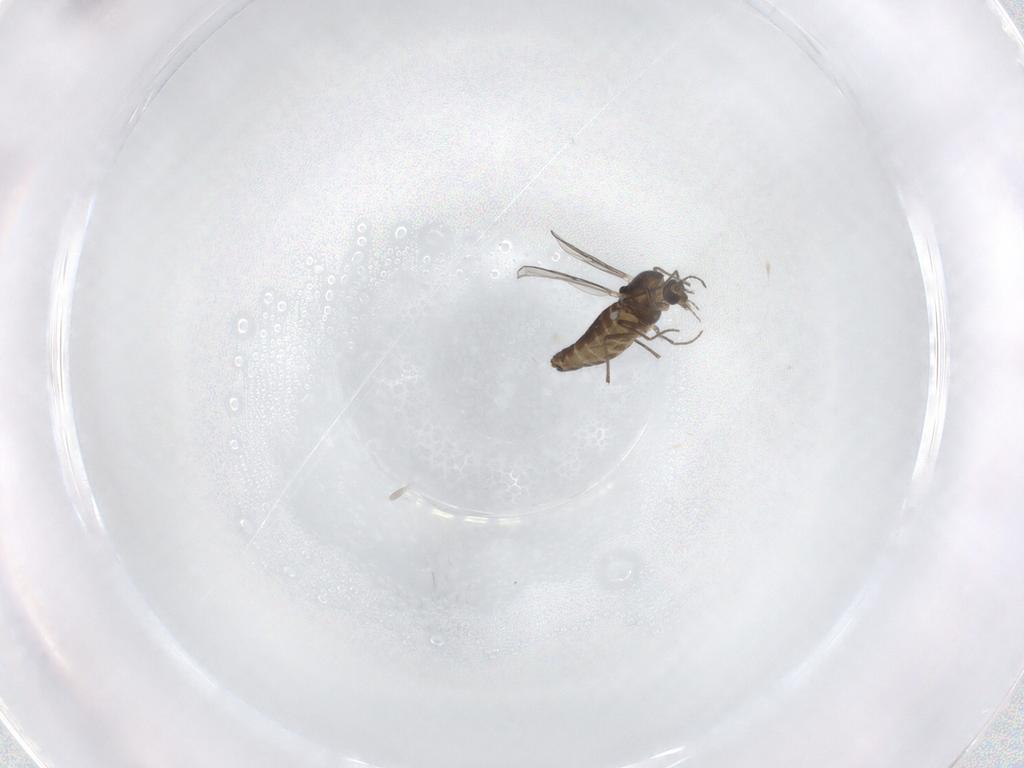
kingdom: Animalia
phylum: Arthropoda
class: Insecta
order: Diptera
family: Chironomidae
